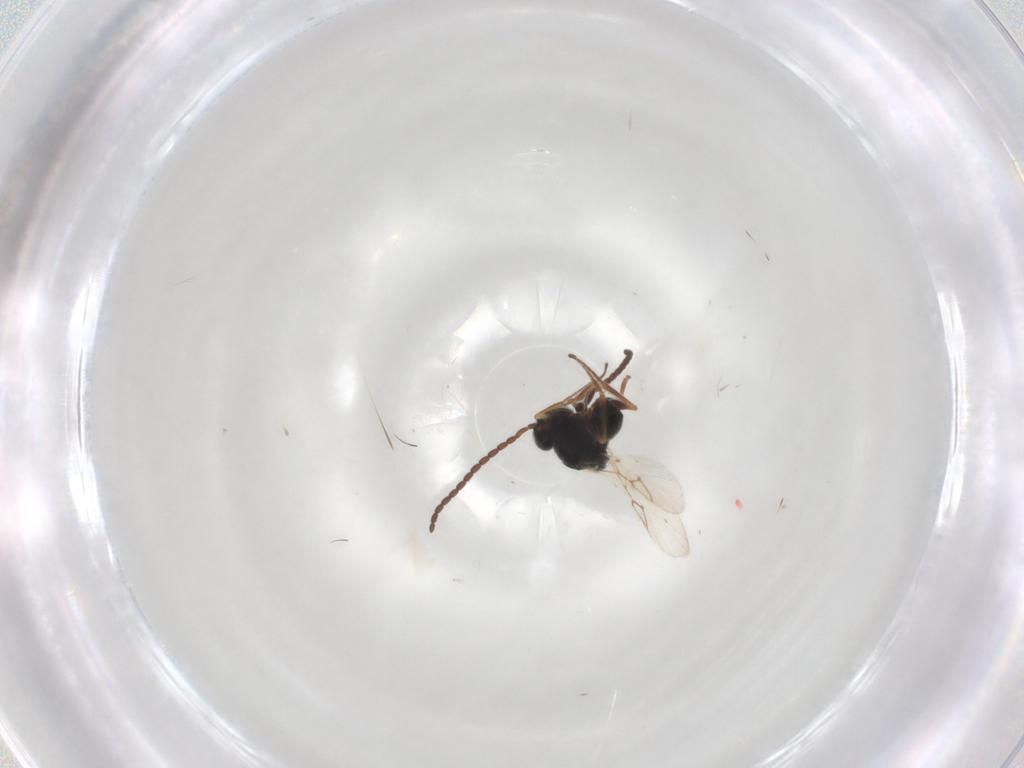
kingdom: Animalia
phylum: Arthropoda
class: Insecta
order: Hymenoptera
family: Figitidae
